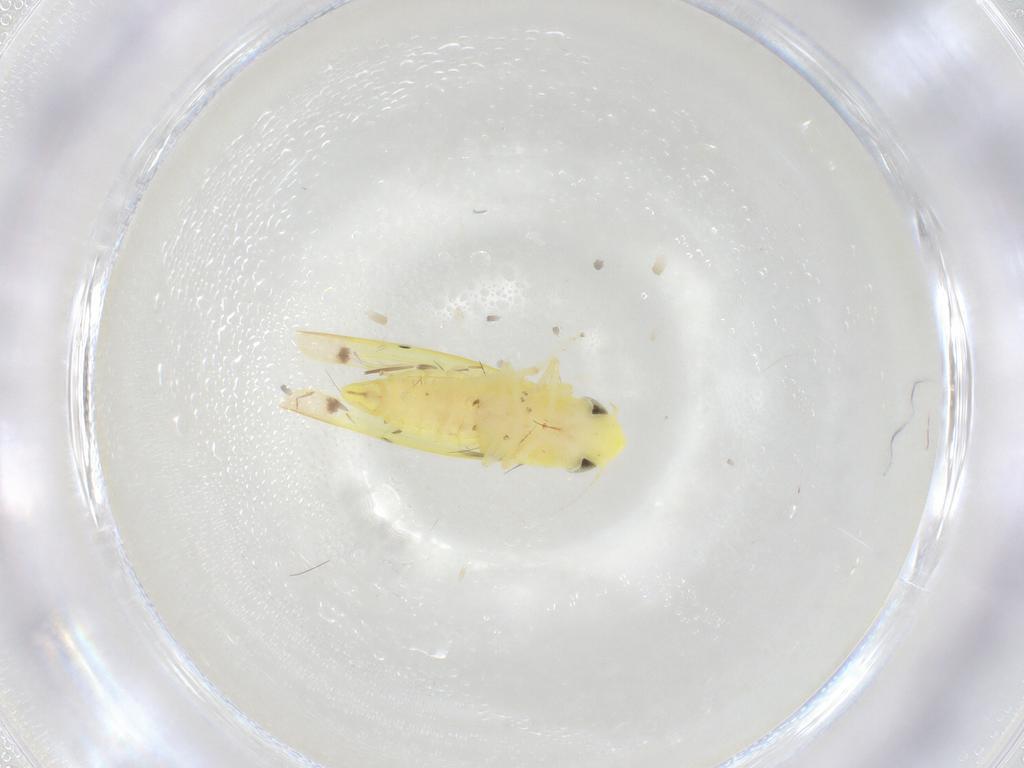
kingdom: Animalia
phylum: Arthropoda
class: Insecta
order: Hemiptera
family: Cicadellidae
